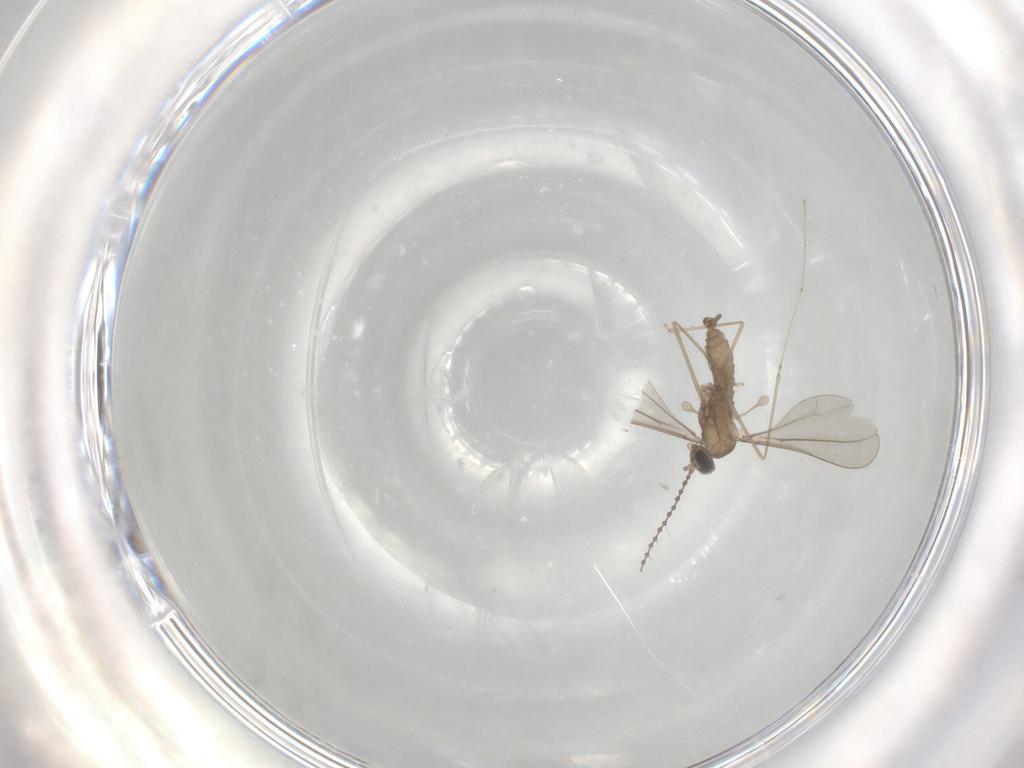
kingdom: Animalia
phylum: Arthropoda
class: Insecta
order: Diptera
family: Cecidomyiidae
